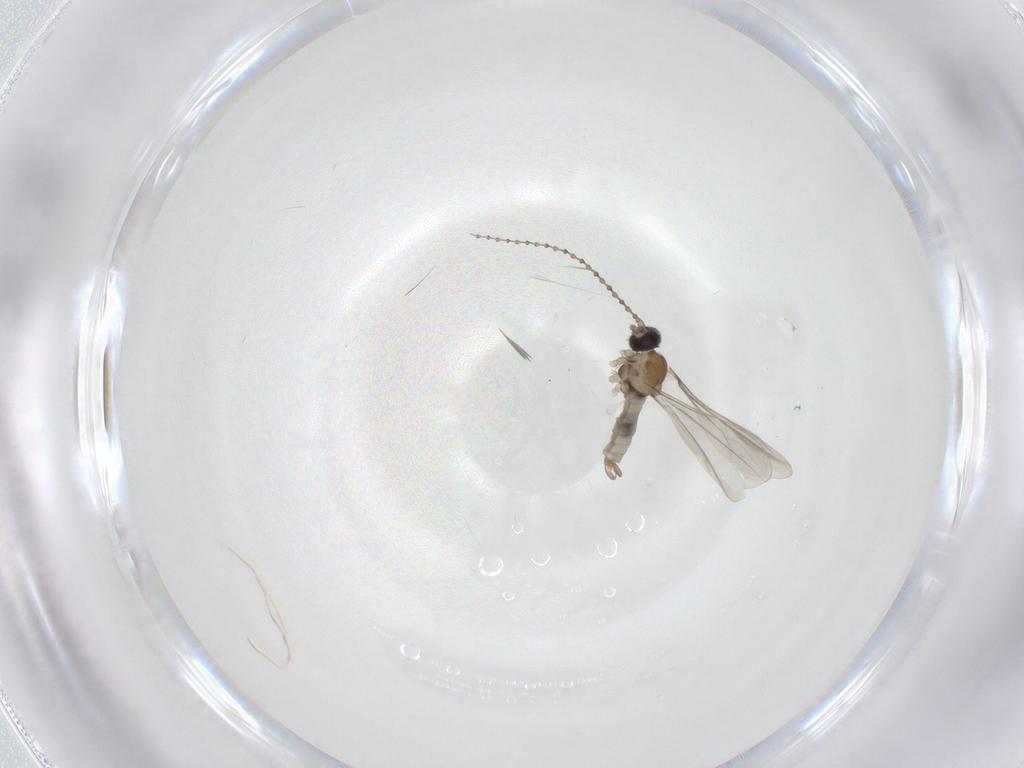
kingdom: Animalia
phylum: Arthropoda
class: Insecta
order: Diptera
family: Cecidomyiidae
